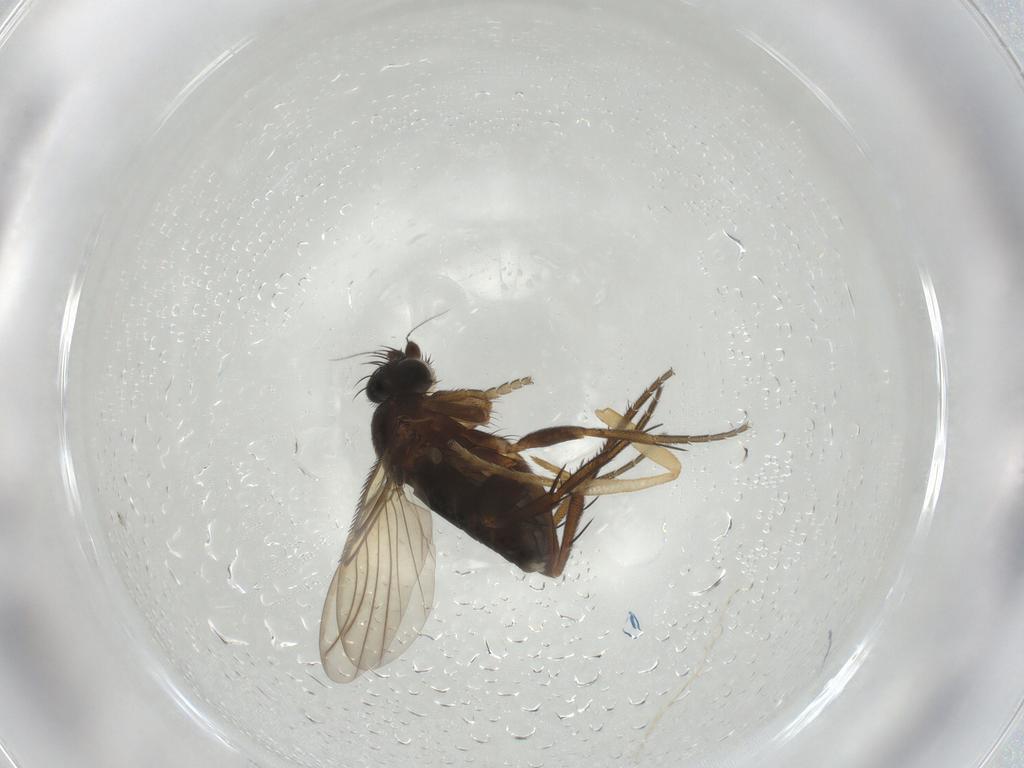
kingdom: Animalia
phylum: Arthropoda
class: Insecta
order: Diptera
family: Phoridae
